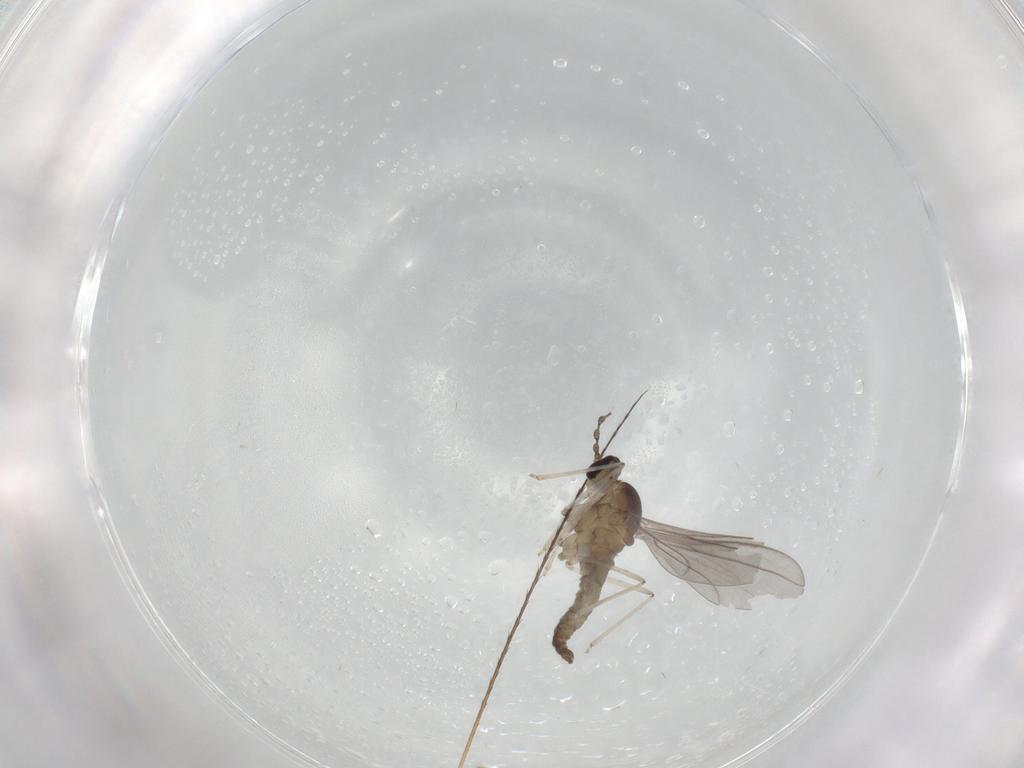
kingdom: Animalia
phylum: Arthropoda
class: Insecta
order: Diptera
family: Cecidomyiidae
